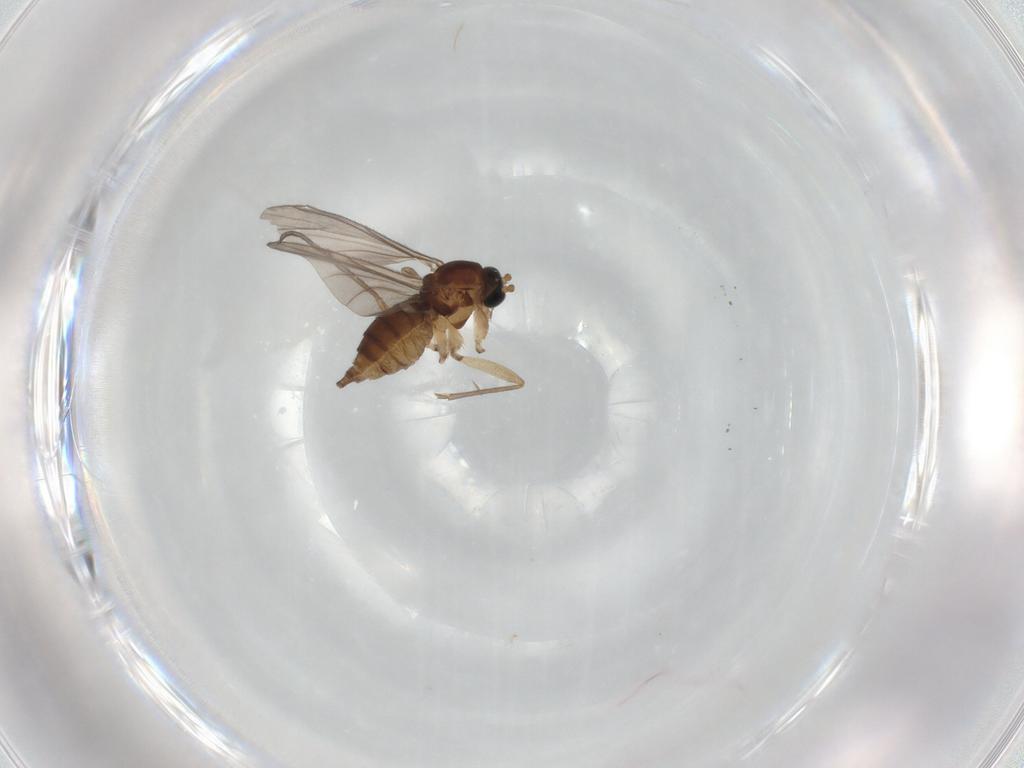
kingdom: Animalia
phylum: Arthropoda
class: Insecta
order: Diptera
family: Sciaridae
